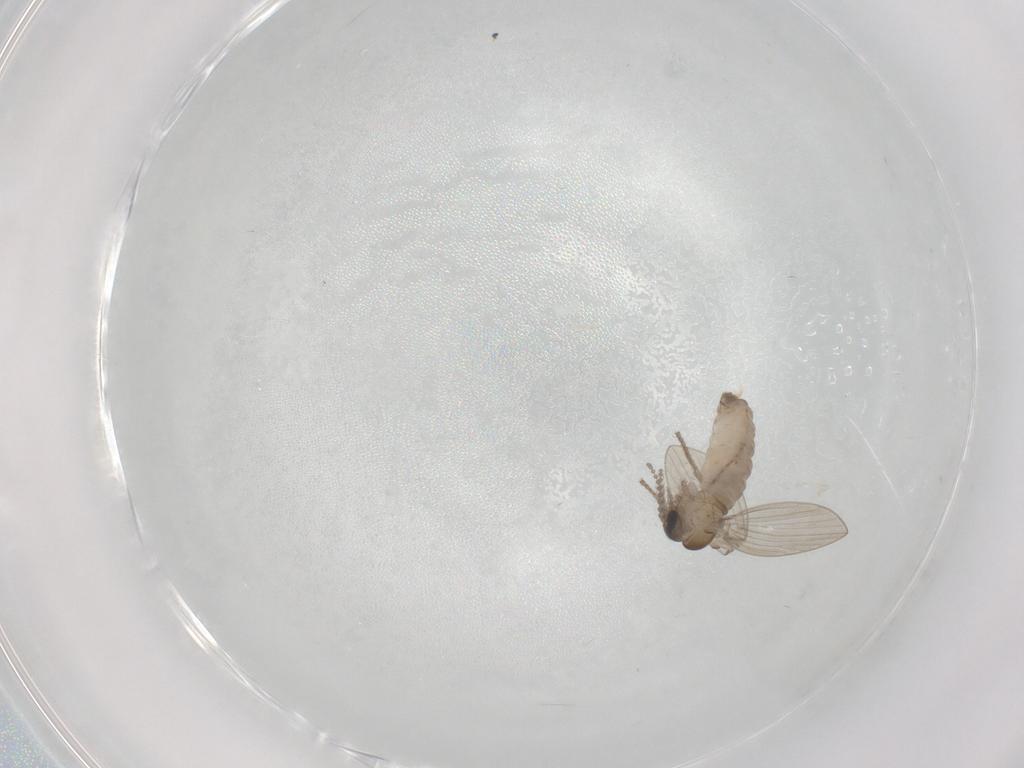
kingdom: Animalia
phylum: Arthropoda
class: Insecta
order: Diptera
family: Psychodidae
